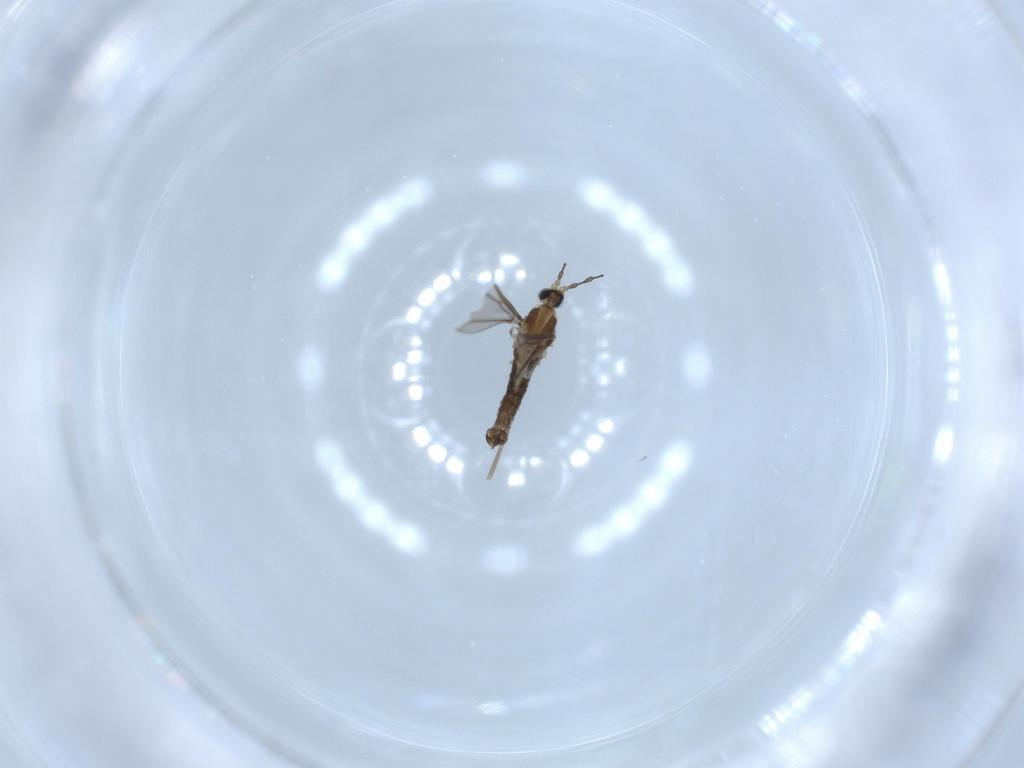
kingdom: Animalia
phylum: Arthropoda
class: Insecta
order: Diptera
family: Cecidomyiidae
